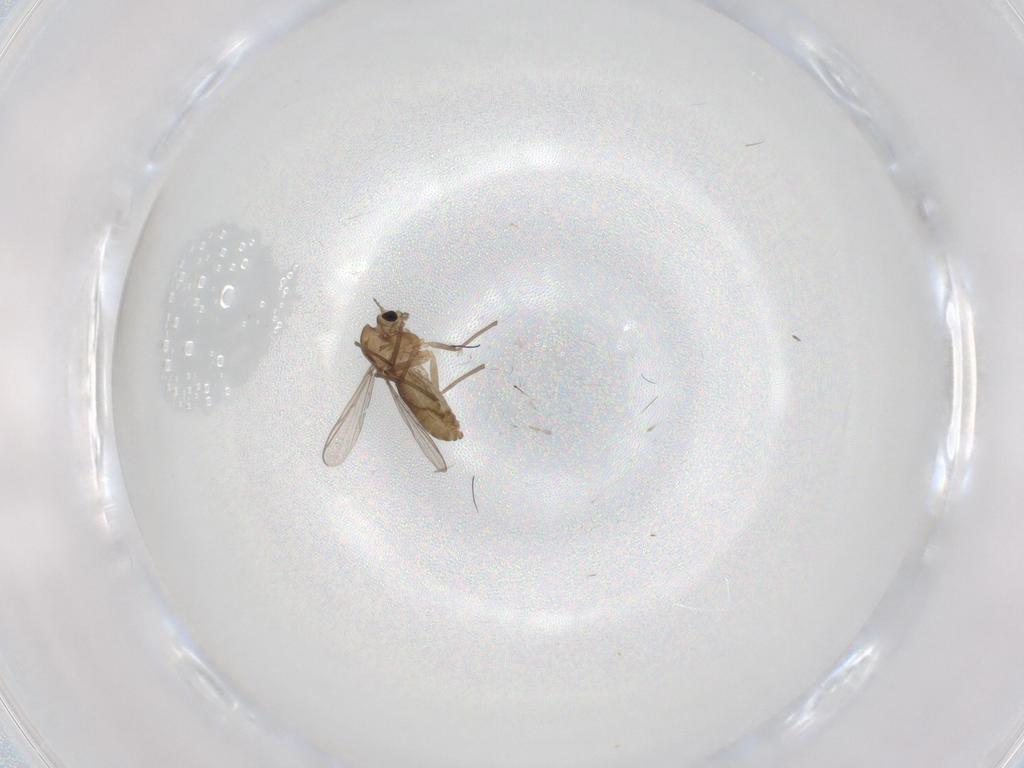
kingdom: Animalia
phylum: Arthropoda
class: Insecta
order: Diptera
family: Chironomidae
